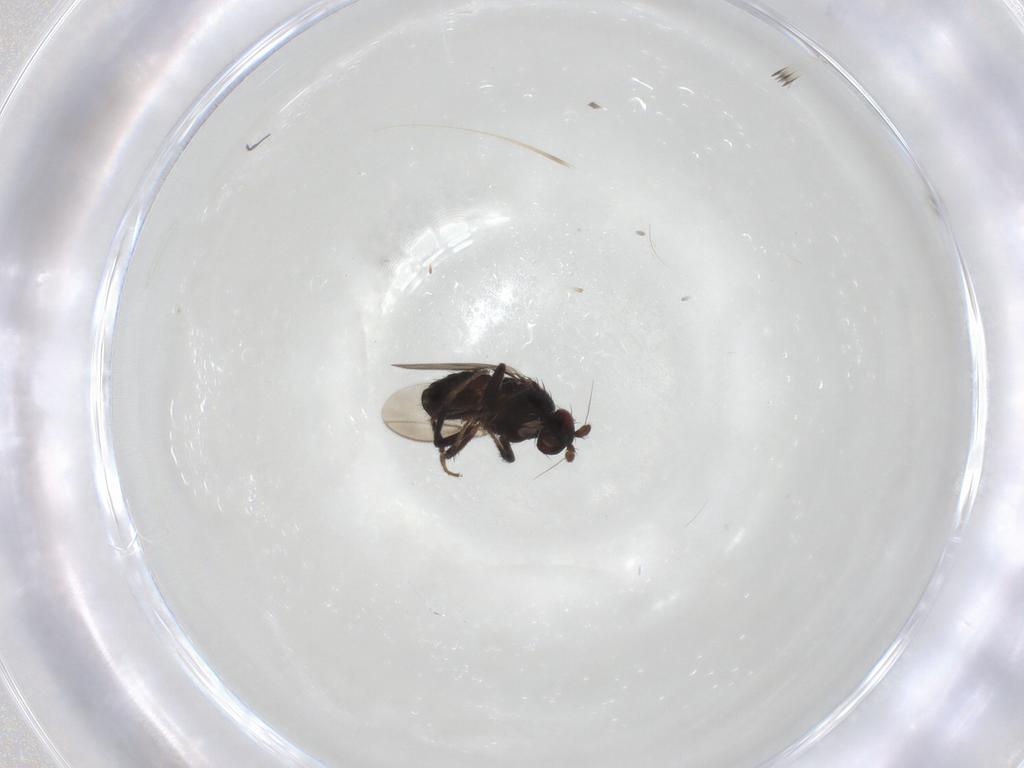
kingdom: Animalia
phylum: Arthropoda
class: Insecta
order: Diptera
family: Sphaeroceridae
